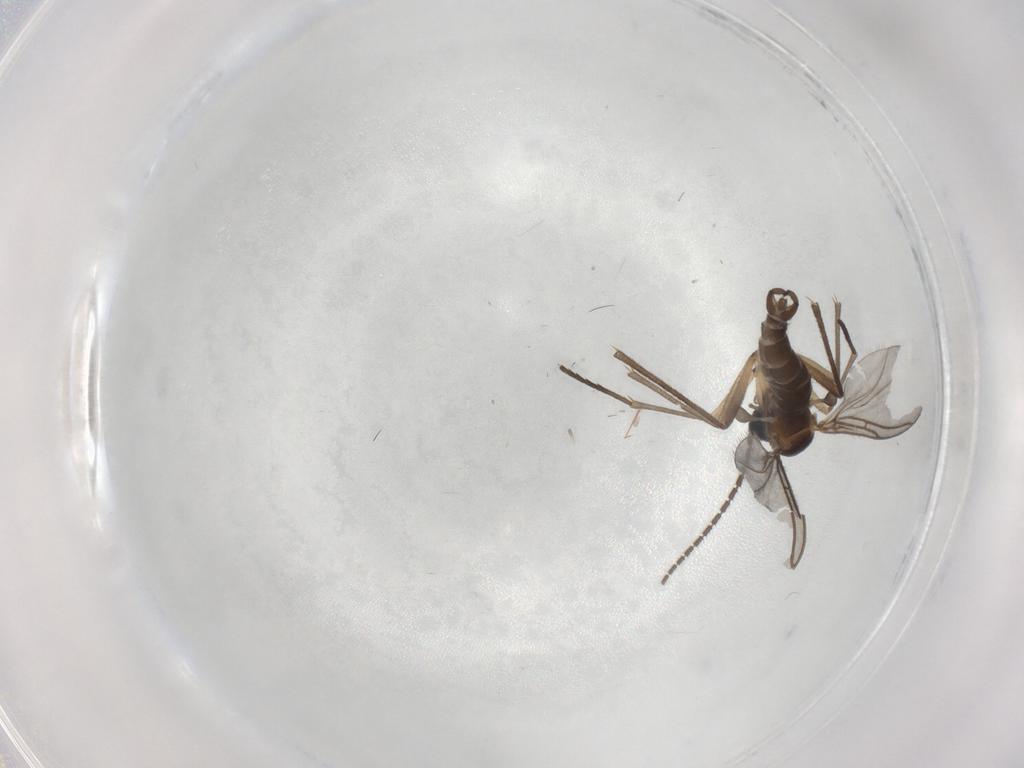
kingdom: Animalia
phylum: Arthropoda
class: Insecta
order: Diptera
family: Sciaridae
